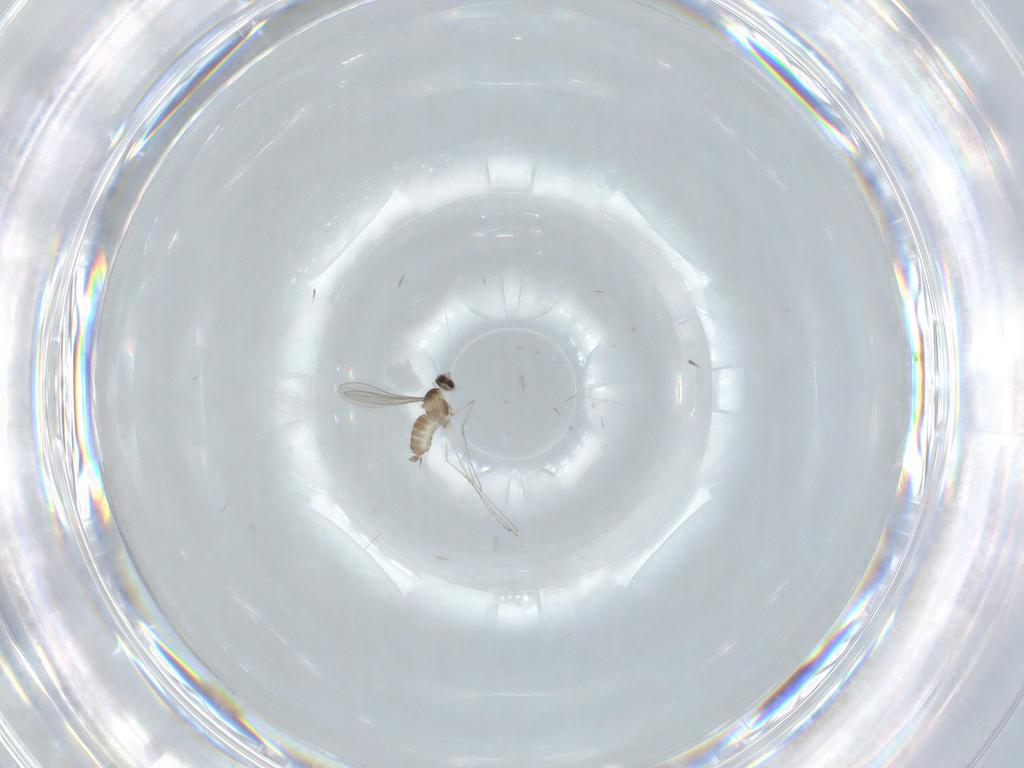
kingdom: Animalia
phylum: Arthropoda
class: Insecta
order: Diptera
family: Cecidomyiidae
